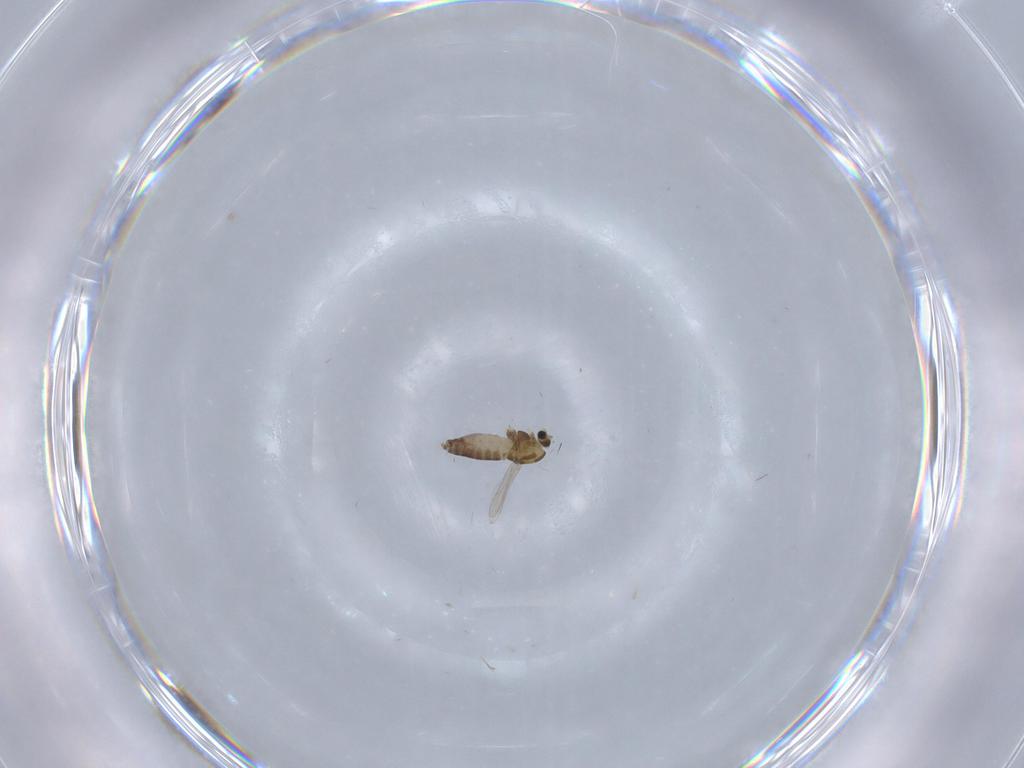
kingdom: Animalia
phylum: Arthropoda
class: Insecta
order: Diptera
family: Chironomidae
